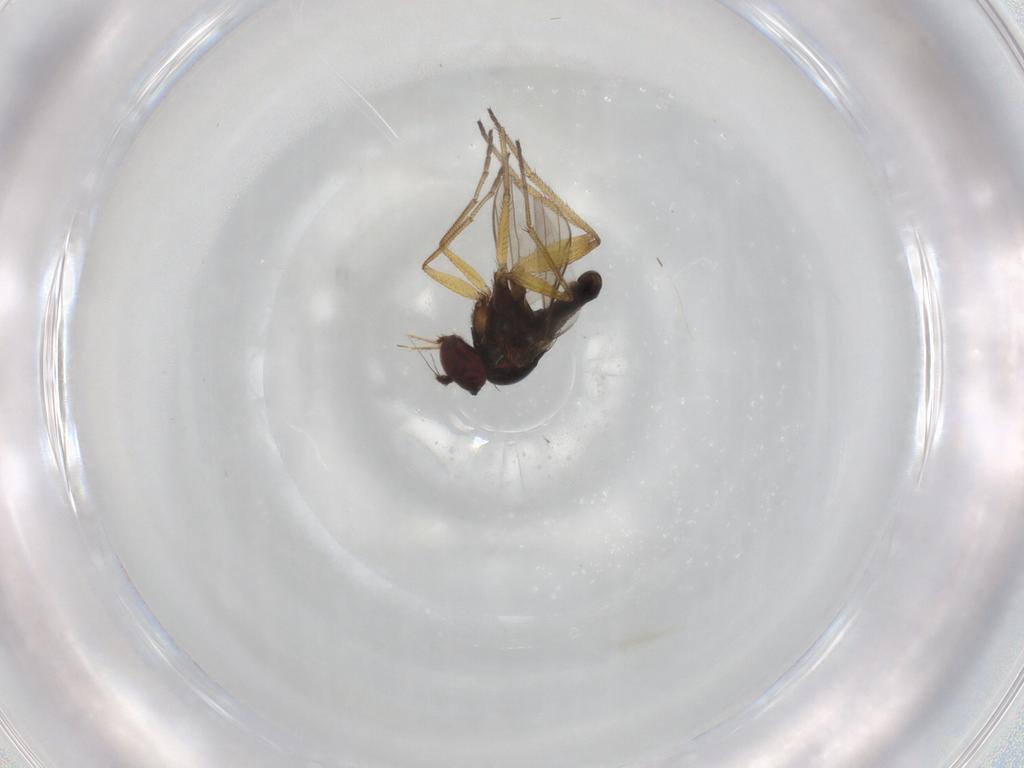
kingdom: Animalia
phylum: Arthropoda
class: Insecta
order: Diptera
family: Dolichopodidae
